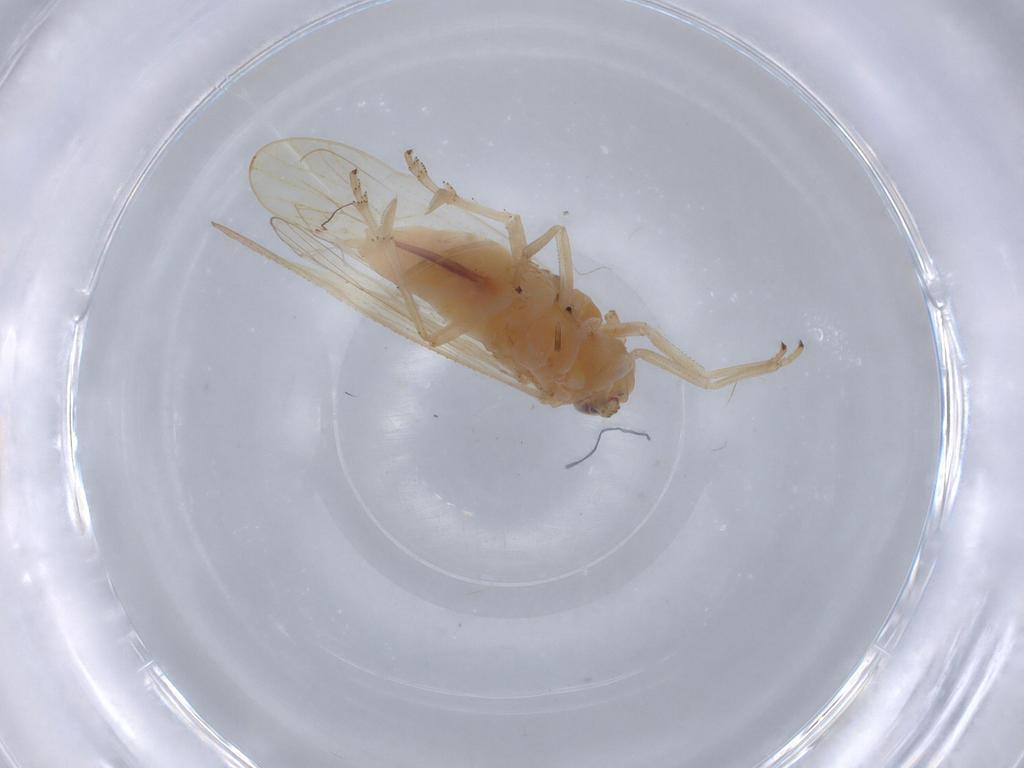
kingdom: Animalia
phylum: Arthropoda
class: Insecta
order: Hemiptera
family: Delphacidae
